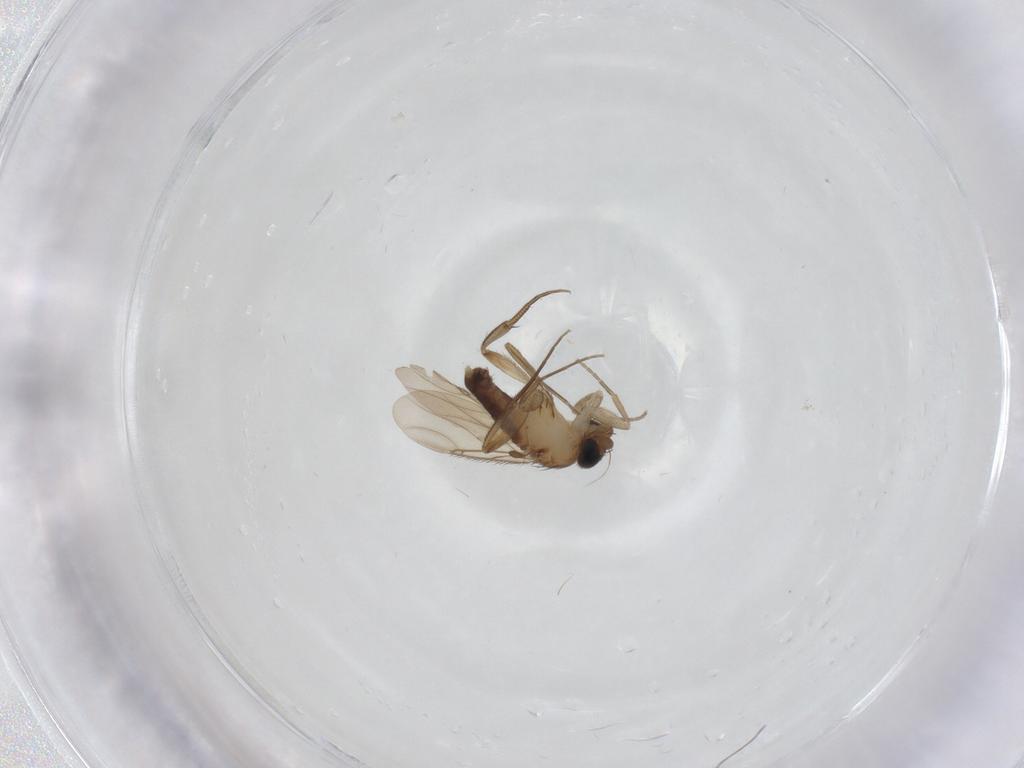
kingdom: Animalia
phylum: Arthropoda
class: Insecta
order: Diptera
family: Phoridae
